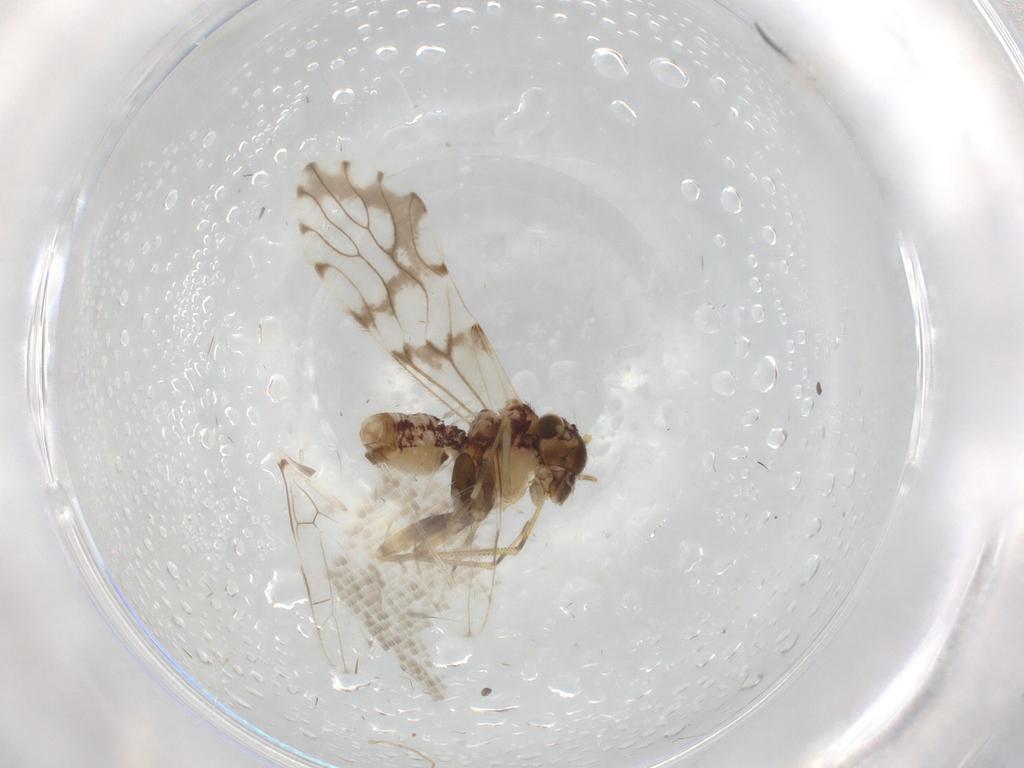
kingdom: Animalia
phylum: Arthropoda
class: Insecta
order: Psocodea
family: Epipsocidae
